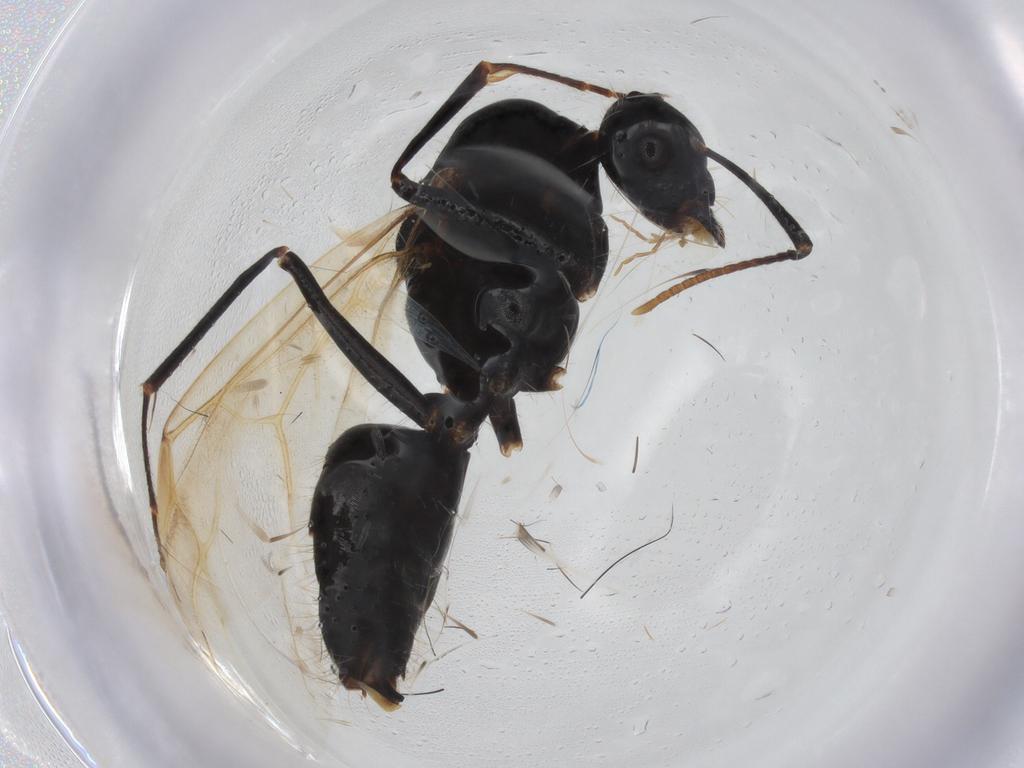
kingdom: Animalia
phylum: Arthropoda
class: Insecta
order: Hymenoptera
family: Formicidae
